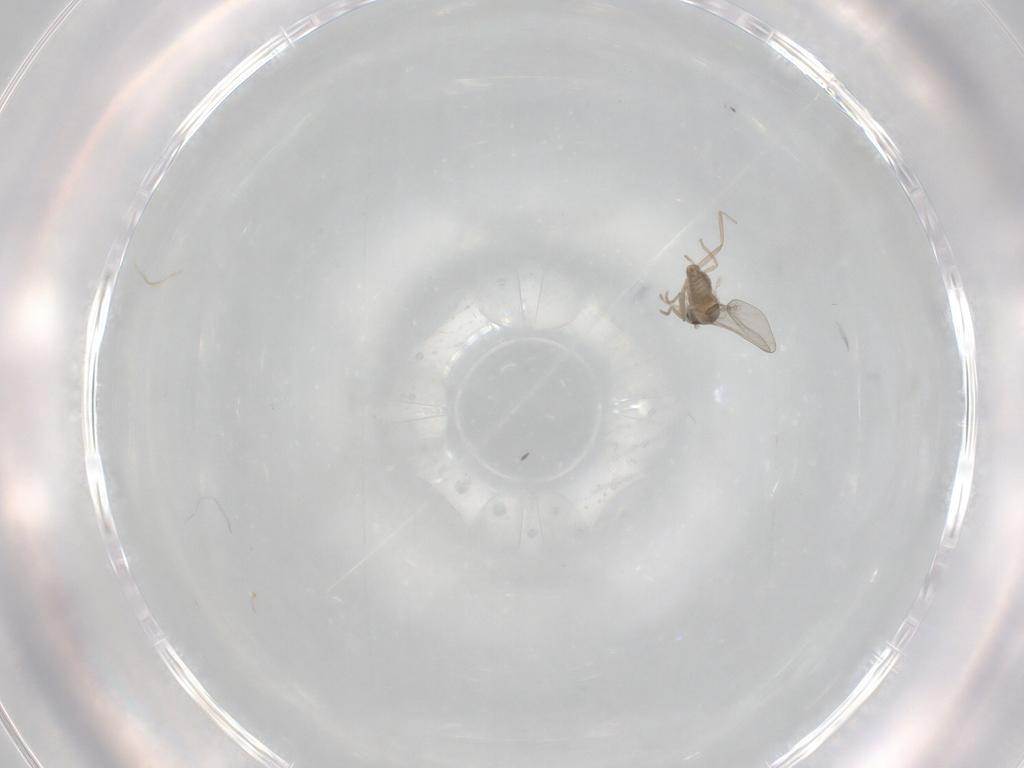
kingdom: Animalia
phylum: Arthropoda
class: Insecta
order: Diptera
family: Cecidomyiidae
